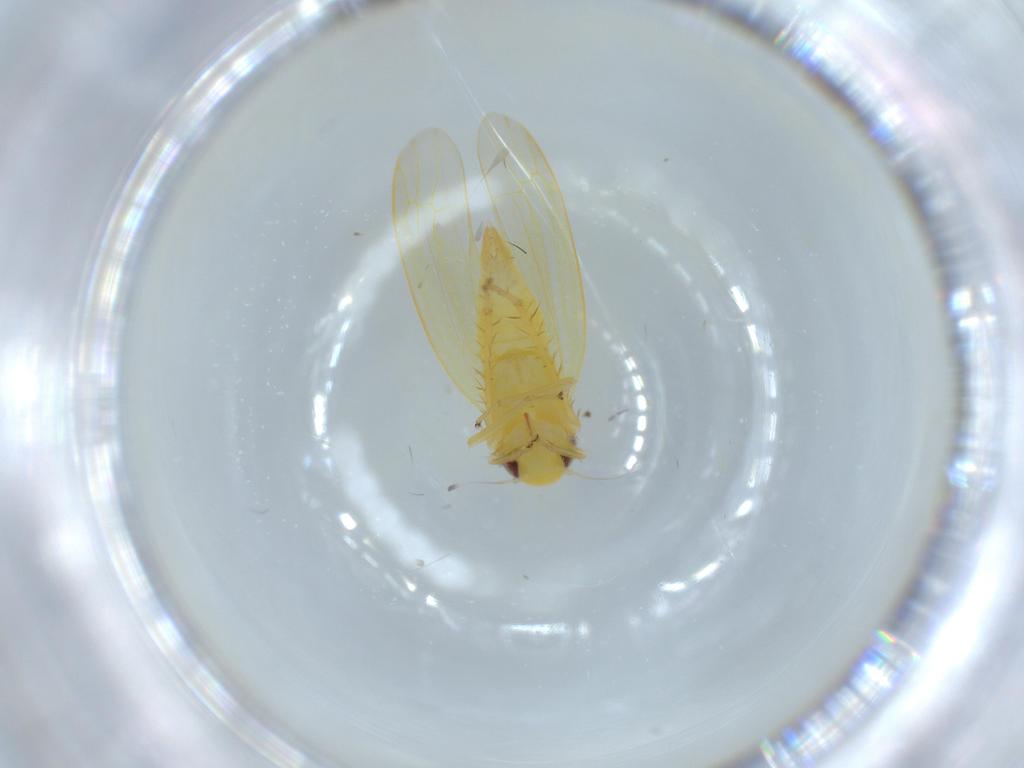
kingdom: Animalia
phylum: Arthropoda
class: Insecta
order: Hemiptera
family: Cicadellidae
